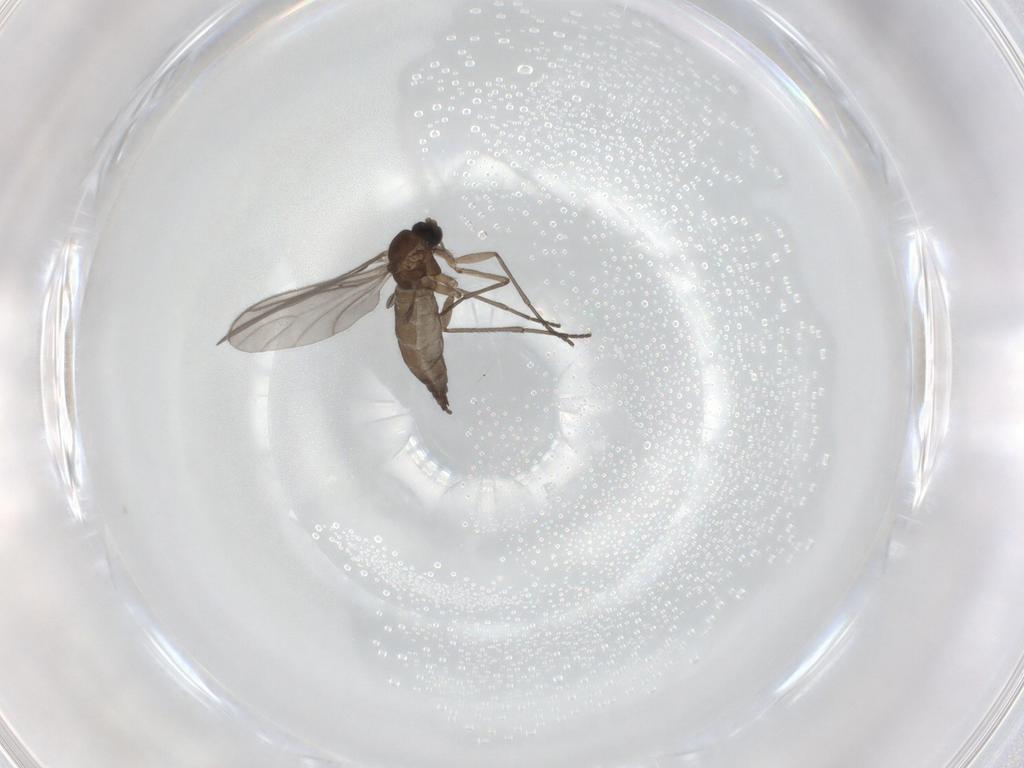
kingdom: Animalia
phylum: Arthropoda
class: Insecta
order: Diptera
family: Sciaridae
